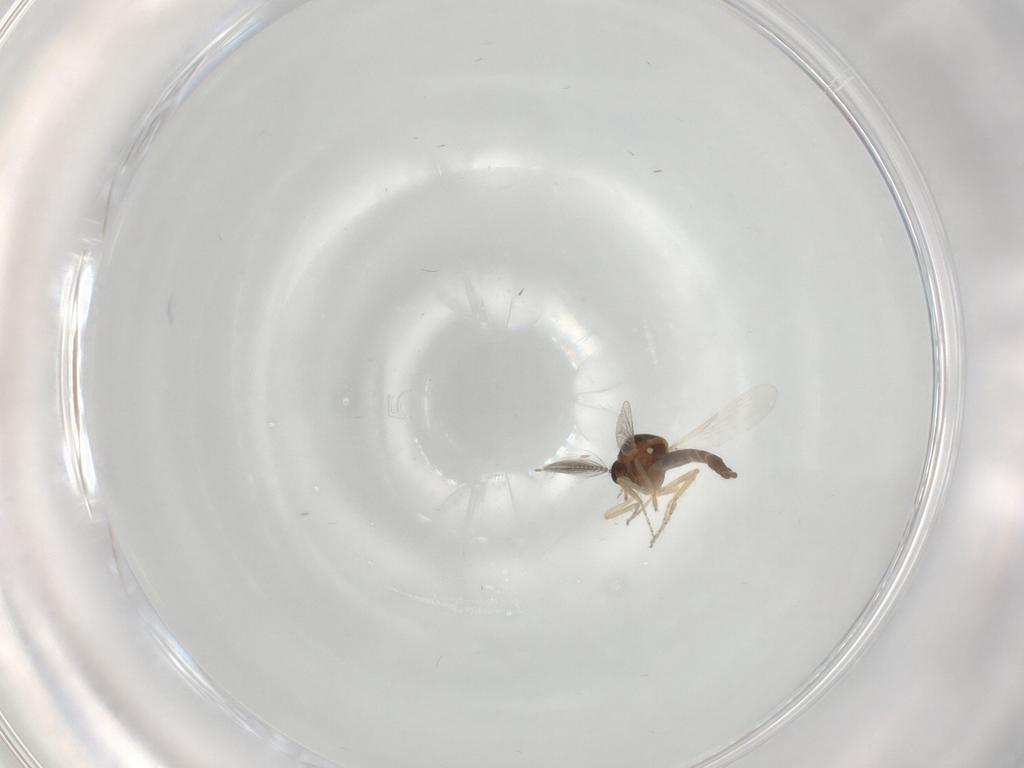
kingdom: Animalia
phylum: Arthropoda
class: Insecta
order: Diptera
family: Ceratopogonidae
